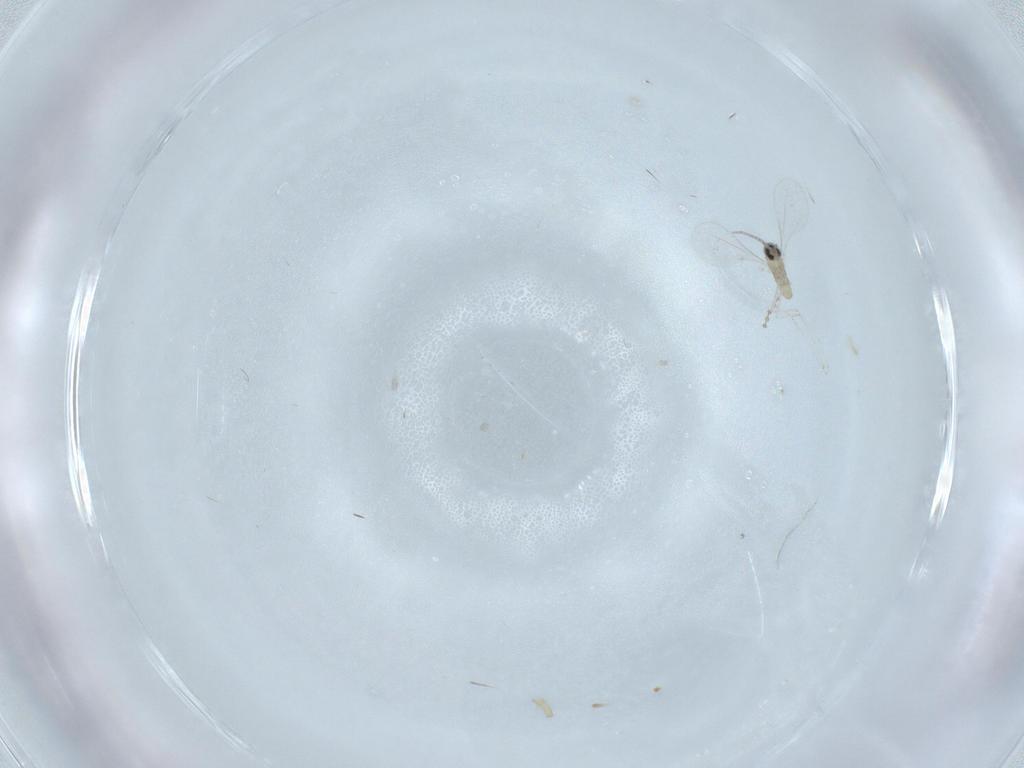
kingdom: Animalia
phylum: Arthropoda
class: Insecta
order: Diptera
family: Cecidomyiidae
